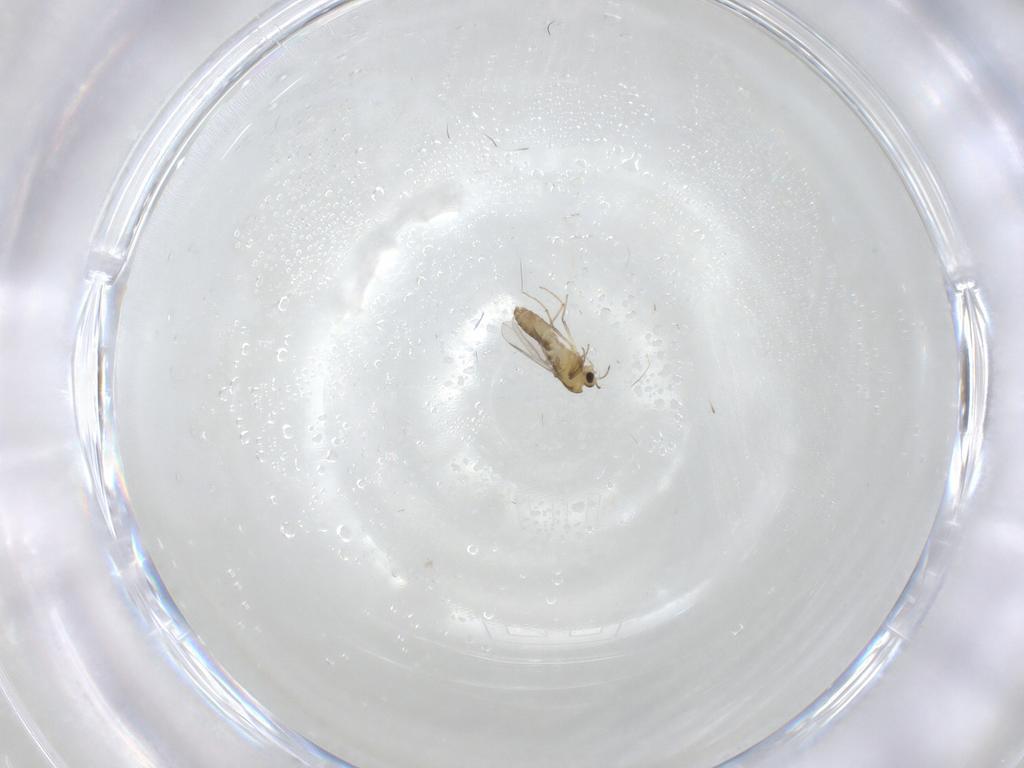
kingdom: Animalia
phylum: Arthropoda
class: Insecta
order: Diptera
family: Chironomidae
